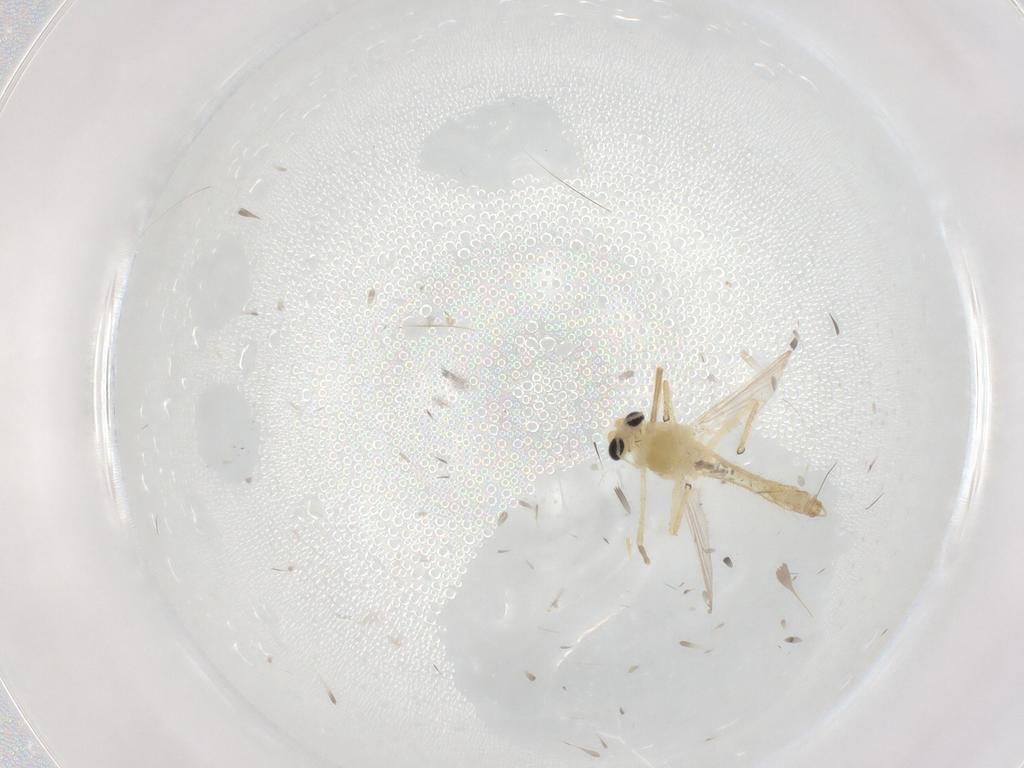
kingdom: Animalia
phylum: Arthropoda
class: Insecta
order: Diptera
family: Chironomidae
